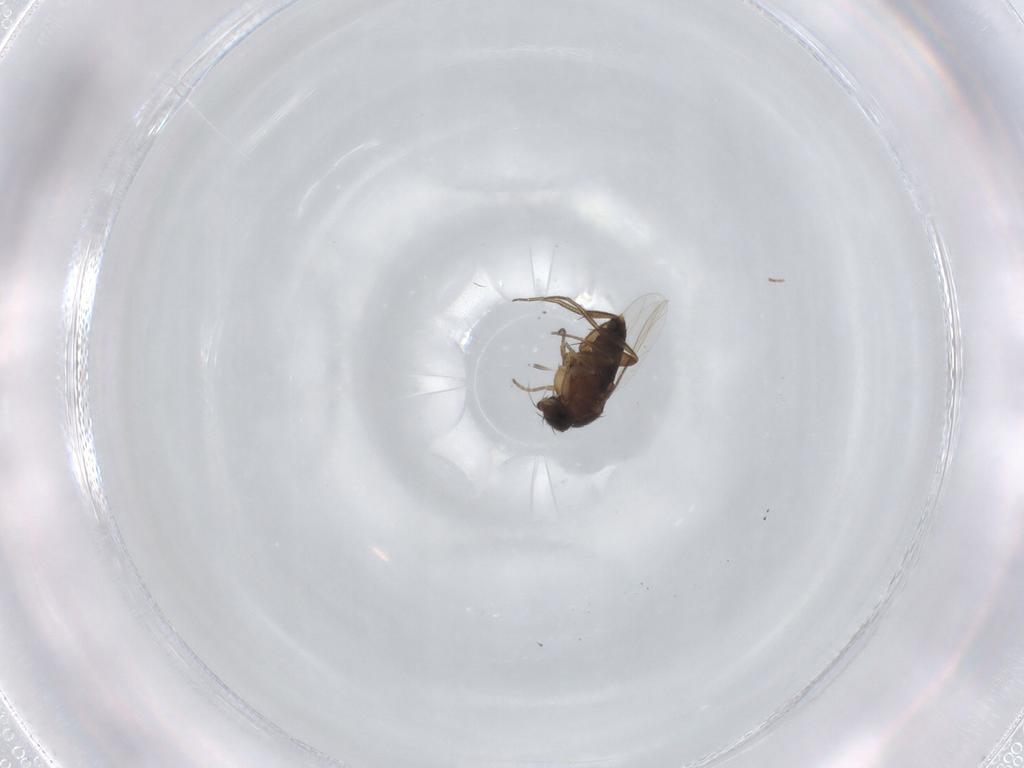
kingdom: Animalia
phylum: Arthropoda
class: Insecta
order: Diptera
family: Phoridae
